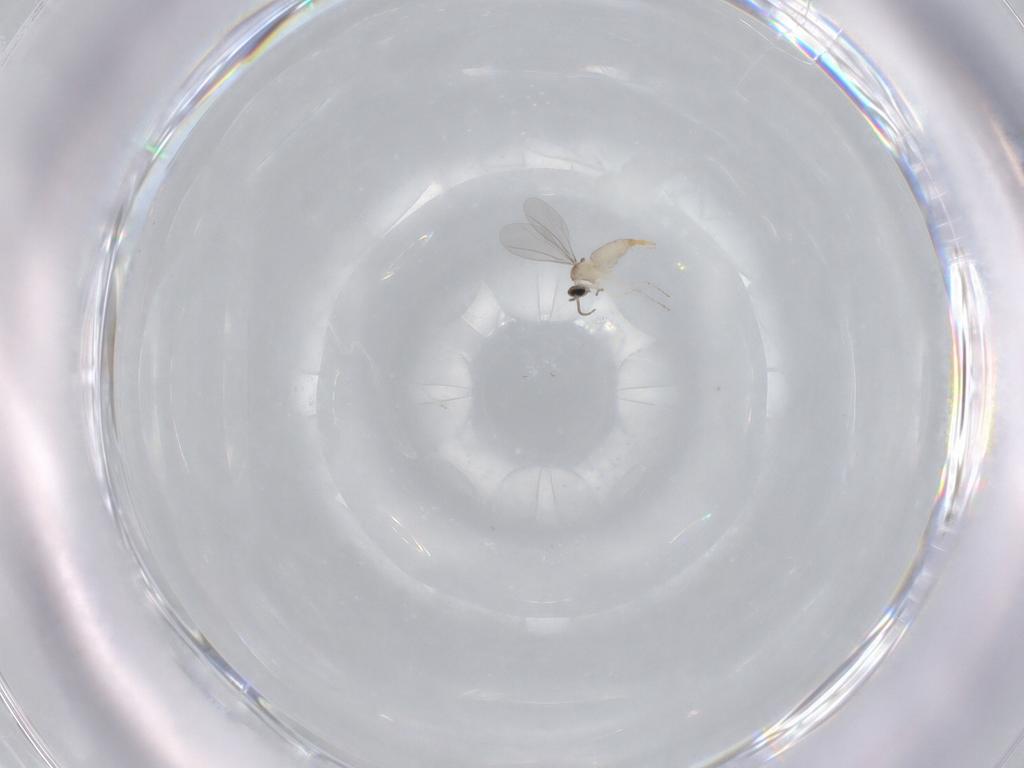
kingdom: Animalia
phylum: Arthropoda
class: Insecta
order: Diptera
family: Cecidomyiidae
